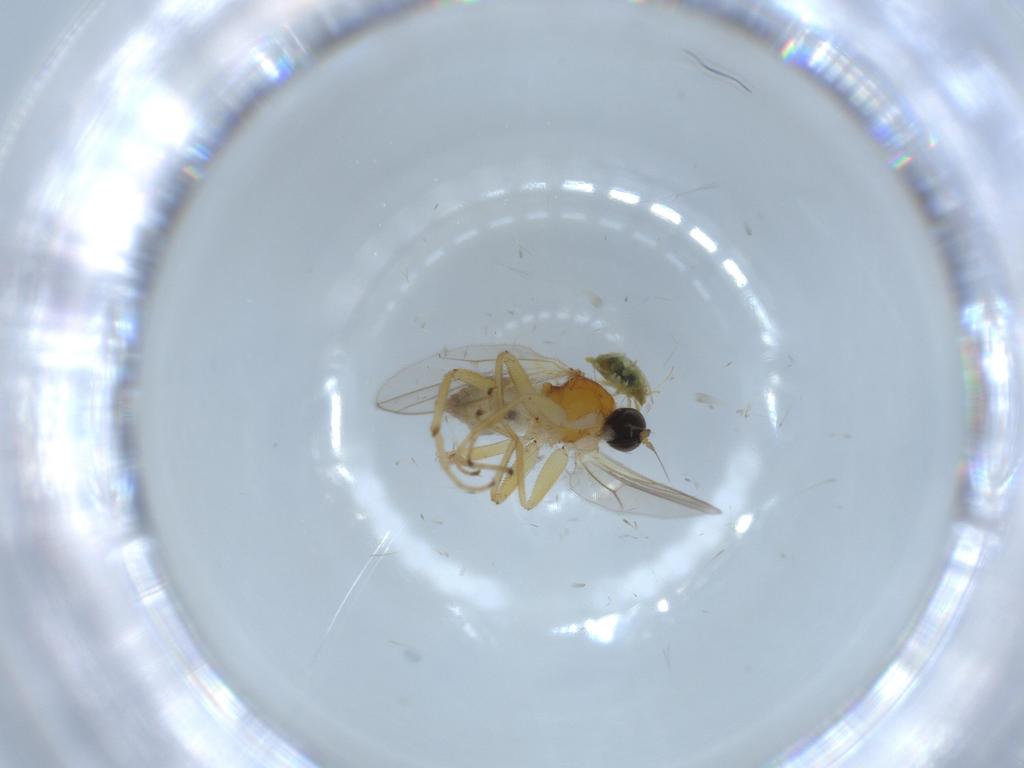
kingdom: Animalia
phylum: Arthropoda
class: Insecta
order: Diptera
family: Hybotidae
